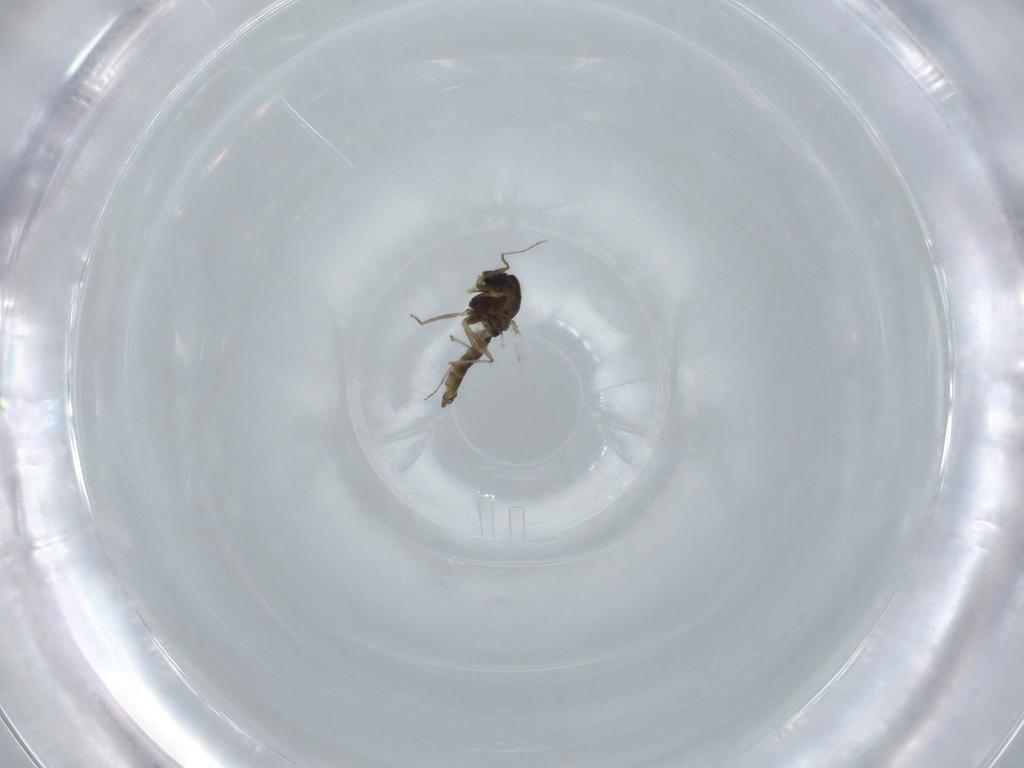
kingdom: Animalia
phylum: Arthropoda
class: Insecta
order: Diptera
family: Chironomidae
